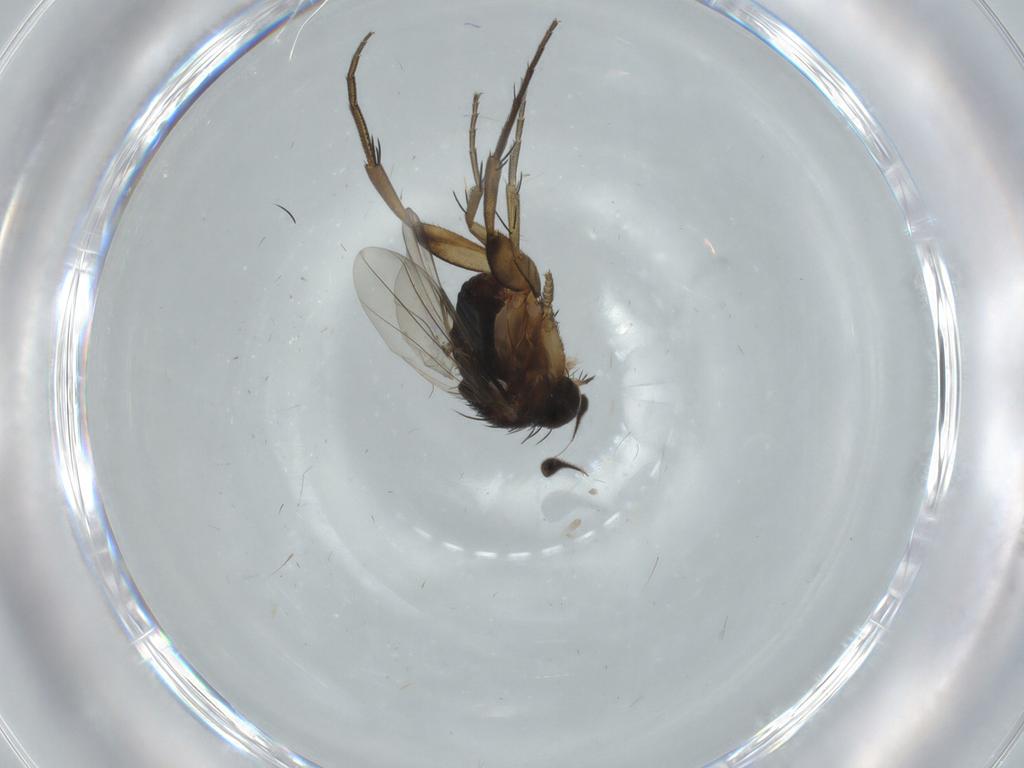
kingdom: Animalia
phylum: Arthropoda
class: Insecta
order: Diptera
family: Phoridae
